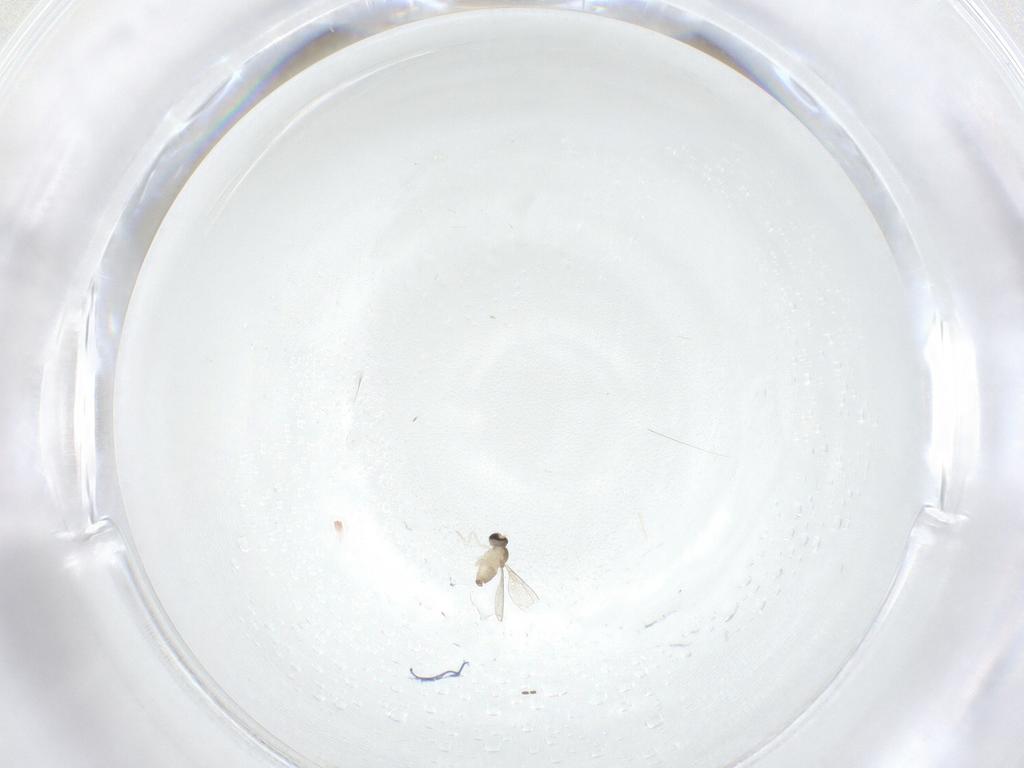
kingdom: Animalia
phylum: Arthropoda
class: Insecta
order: Diptera
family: Sciaridae
